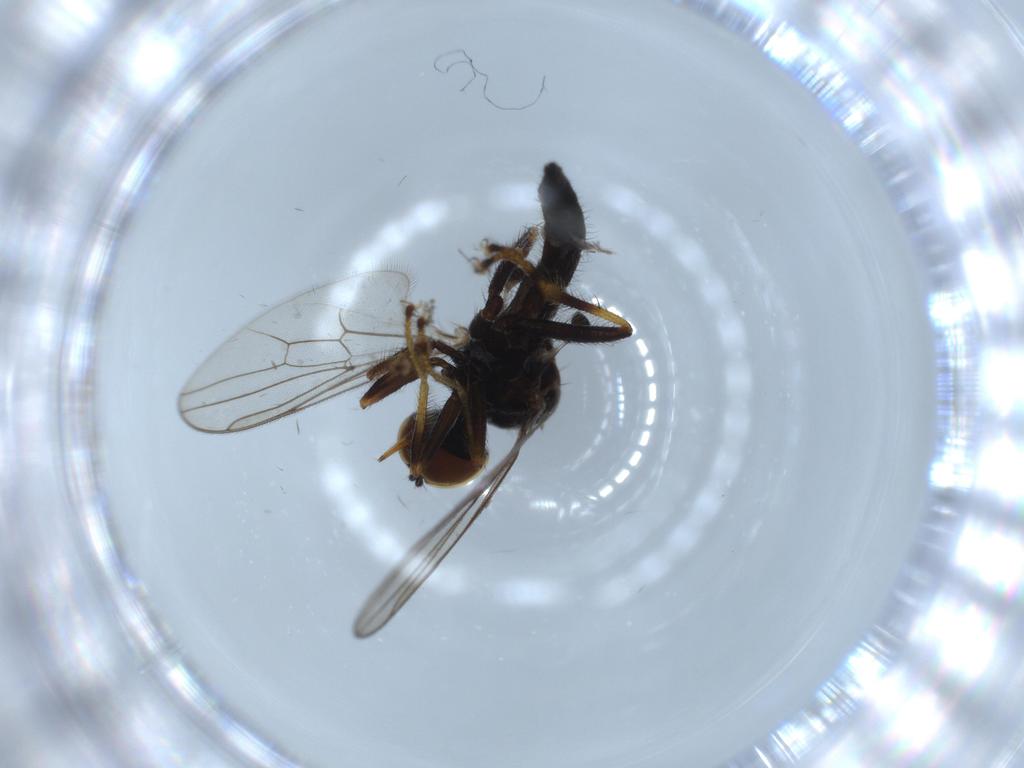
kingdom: Animalia
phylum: Arthropoda
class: Insecta
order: Diptera
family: Hybotidae
